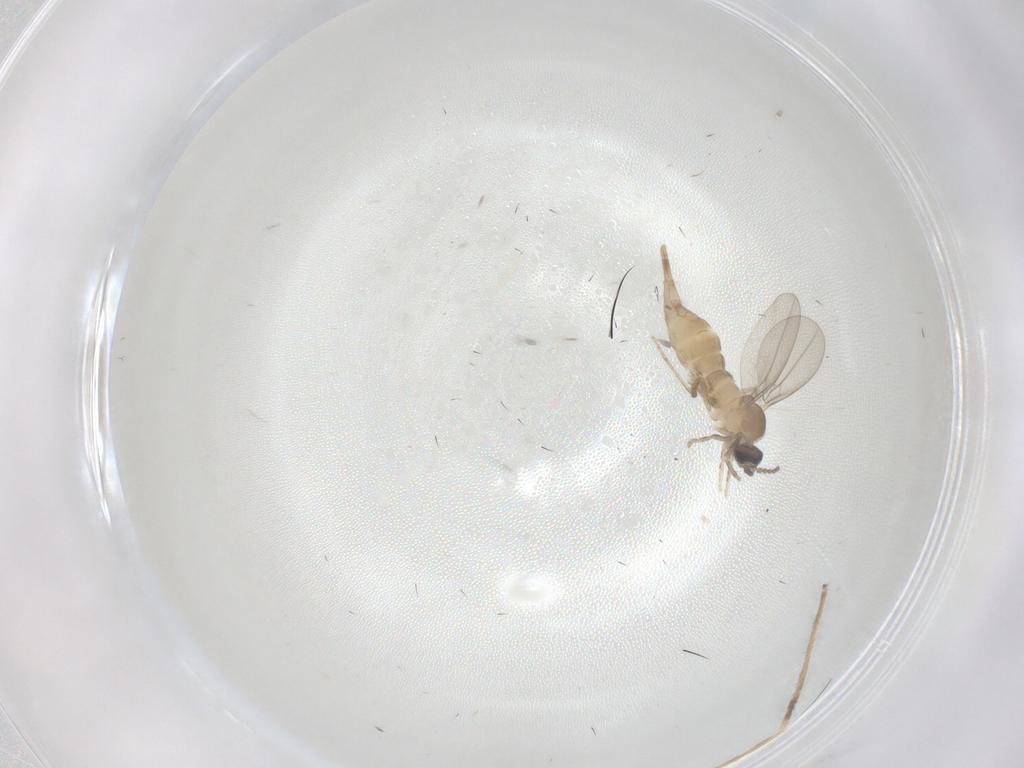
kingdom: Animalia
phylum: Arthropoda
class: Insecta
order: Diptera
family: Cecidomyiidae
